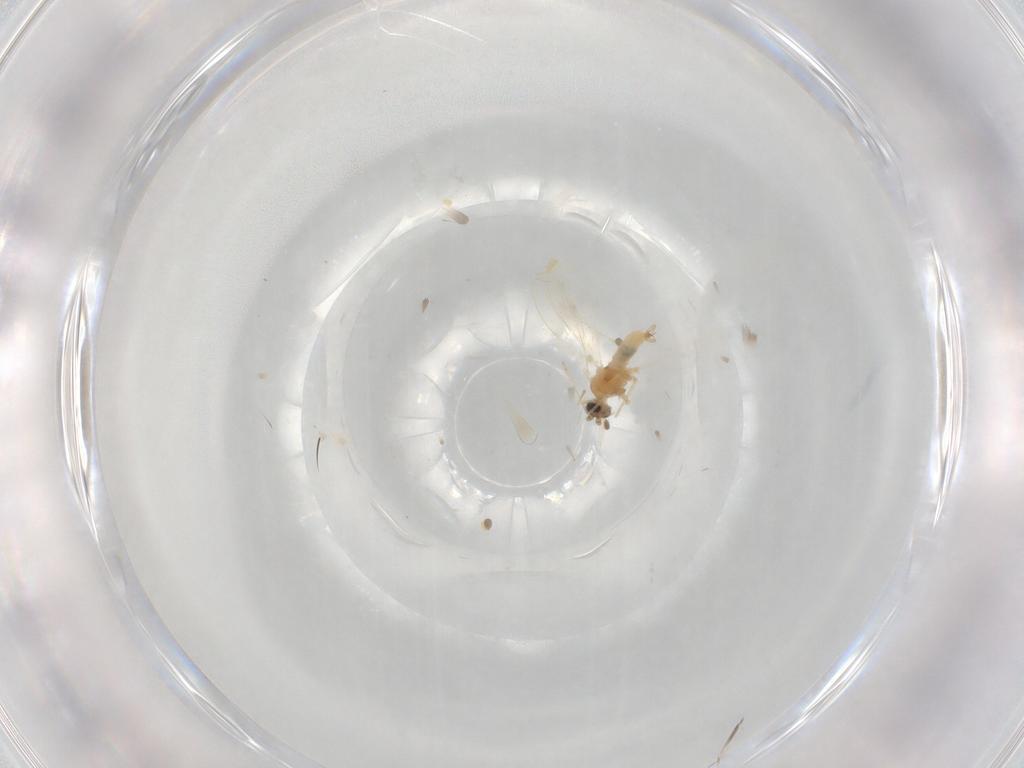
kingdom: Animalia
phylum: Arthropoda
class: Insecta
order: Diptera
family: Cecidomyiidae
